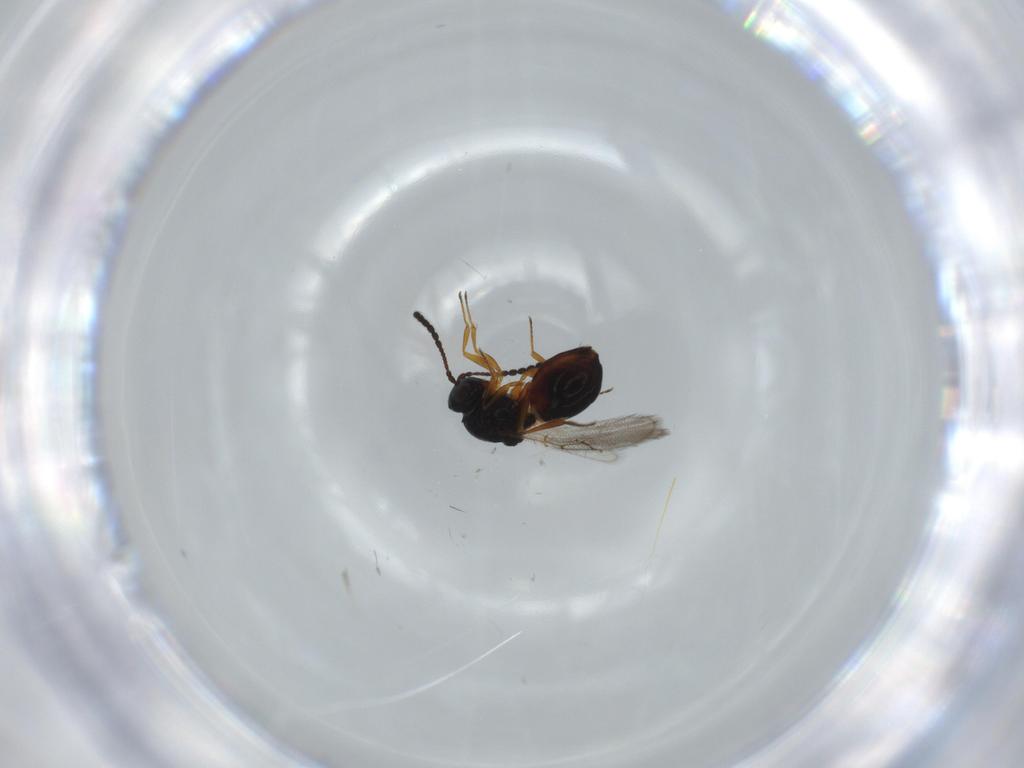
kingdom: Animalia
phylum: Arthropoda
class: Insecta
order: Hymenoptera
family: Figitidae
